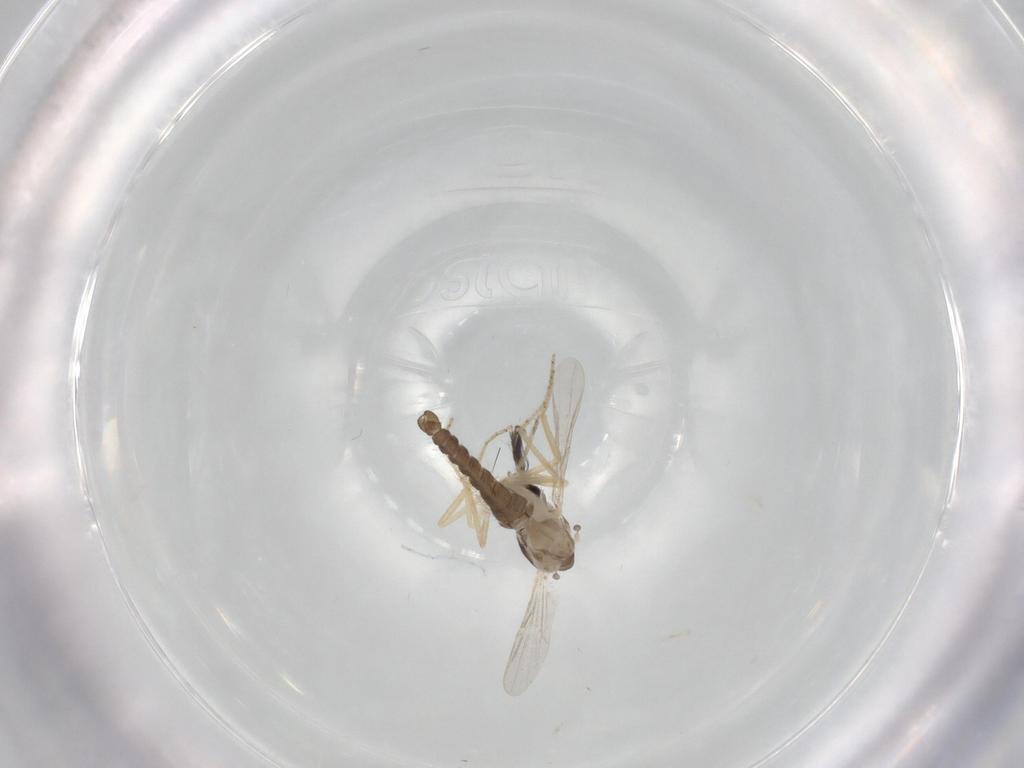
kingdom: Animalia
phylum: Arthropoda
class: Insecta
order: Diptera
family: Ceratopogonidae
